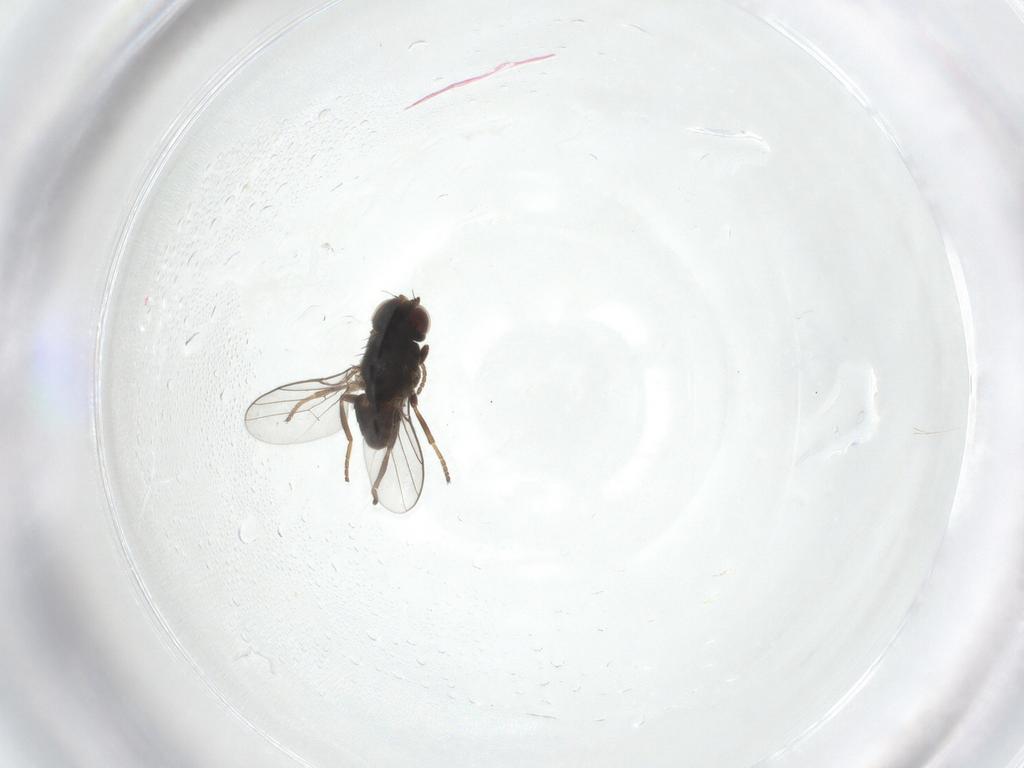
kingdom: Animalia
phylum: Arthropoda
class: Insecta
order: Diptera
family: Chloropidae
